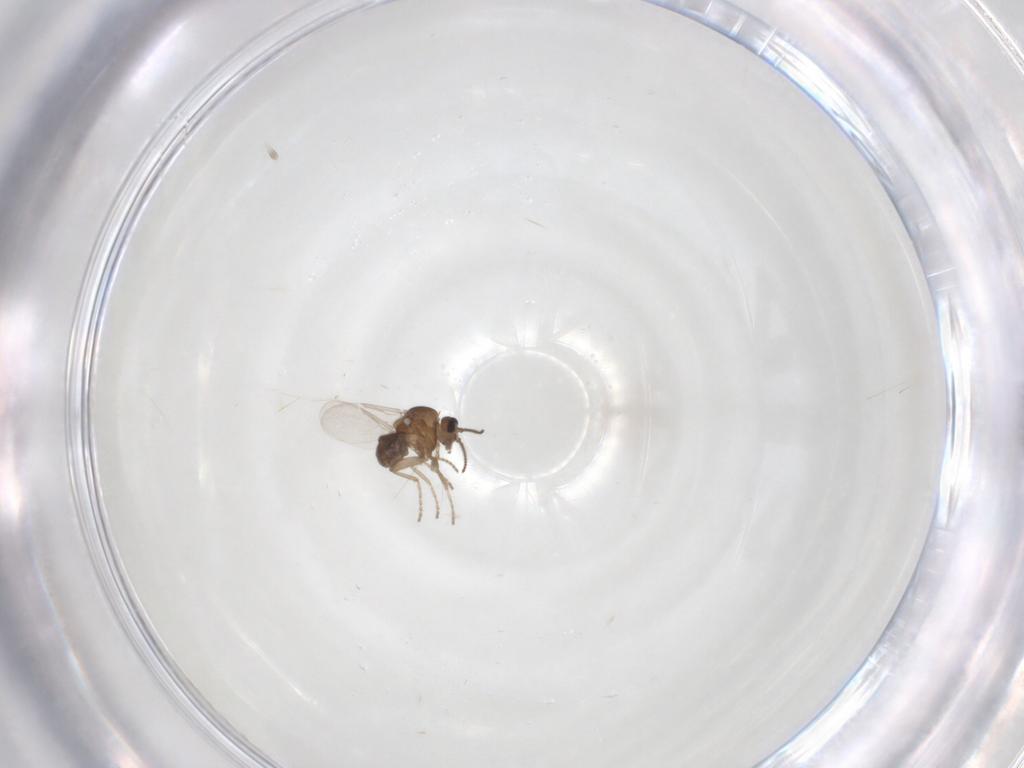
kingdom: Animalia
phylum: Arthropoda
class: Insecta
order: Diptera
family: Ceratopogonidae
